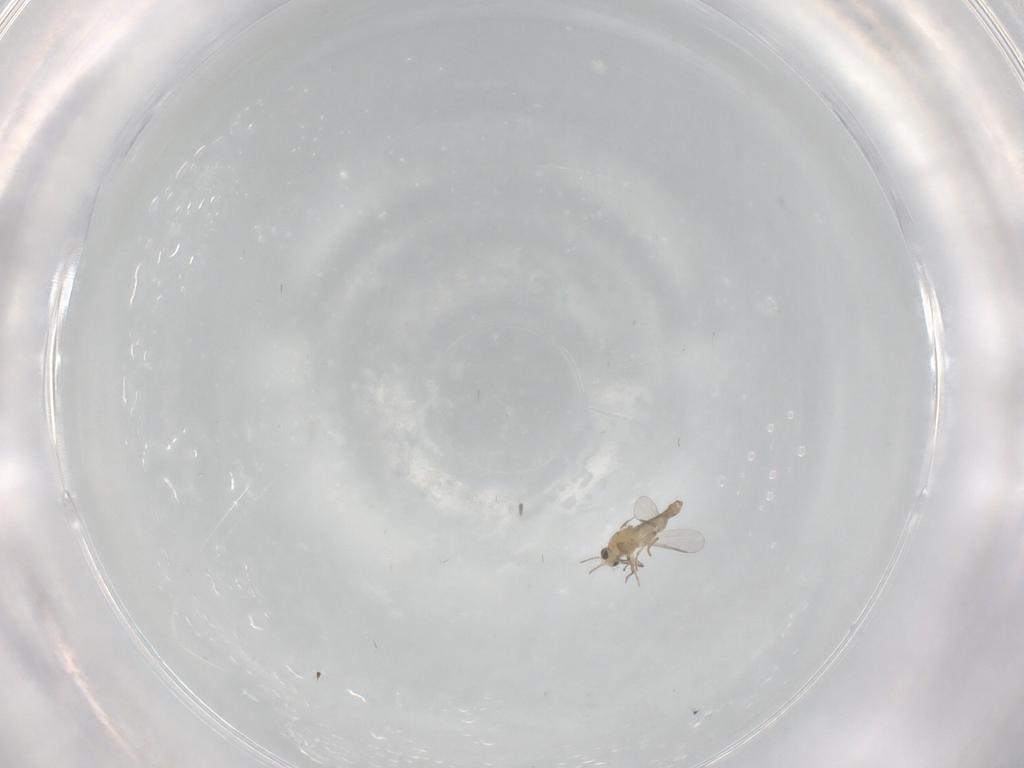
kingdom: Animalia
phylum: Arthropoda
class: Insecta
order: Diptera
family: Chironomidae
